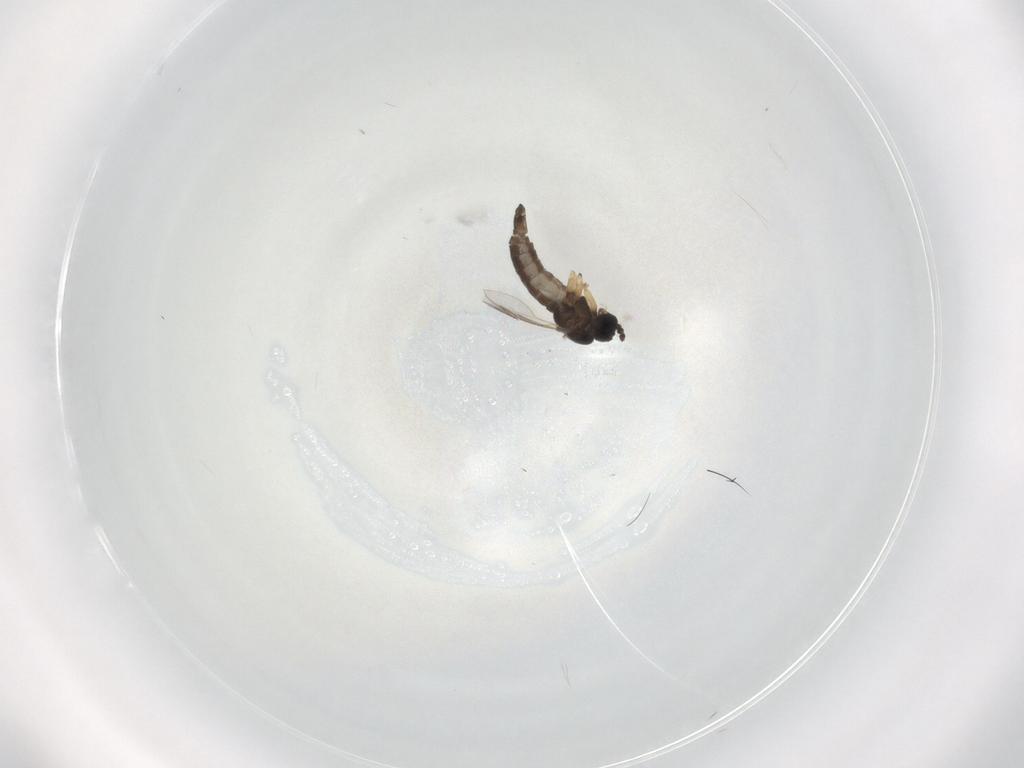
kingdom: Animalia
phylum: Arthropoda
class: Insecta
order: Diptera
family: Sciaridae
